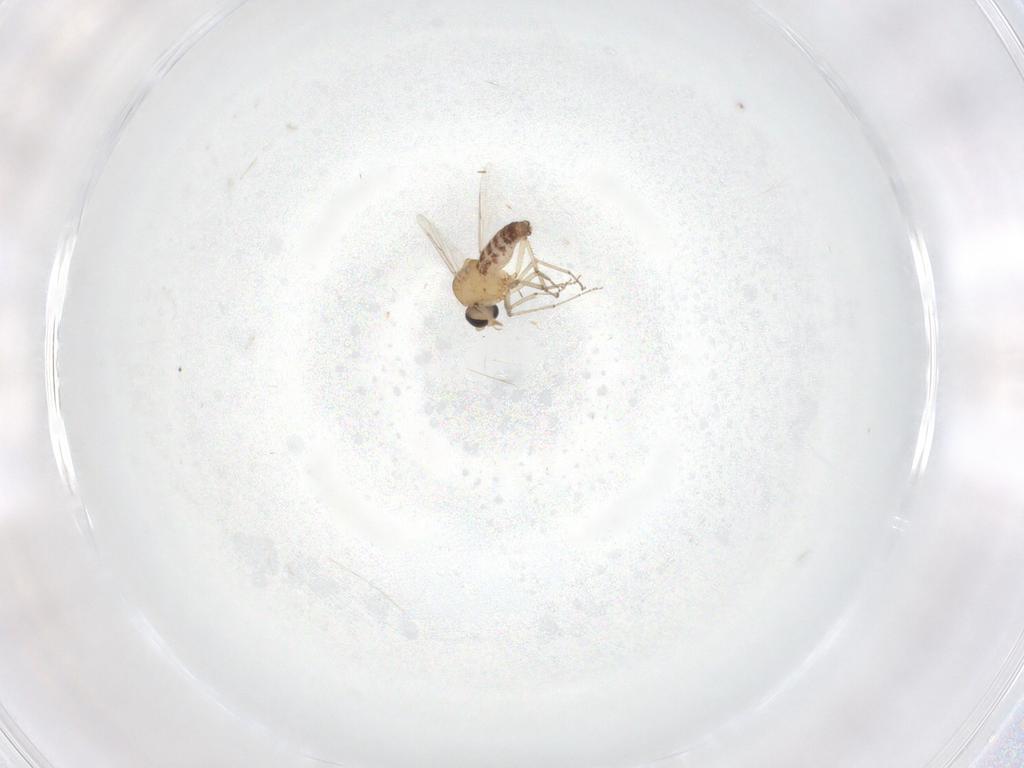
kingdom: Animalia
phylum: Arthropoda
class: Insecta
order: Diptera
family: Ceratopogonidae
